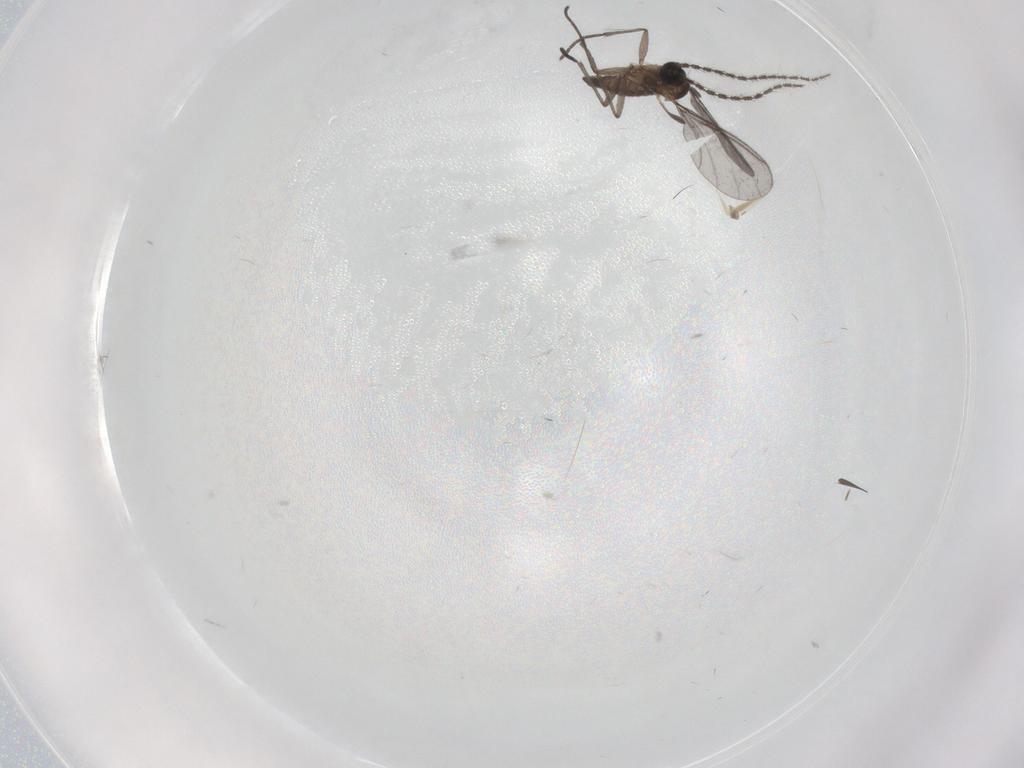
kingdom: Animalia
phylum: Arthropoda
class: Insecta
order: Diptera
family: Sciaridae
